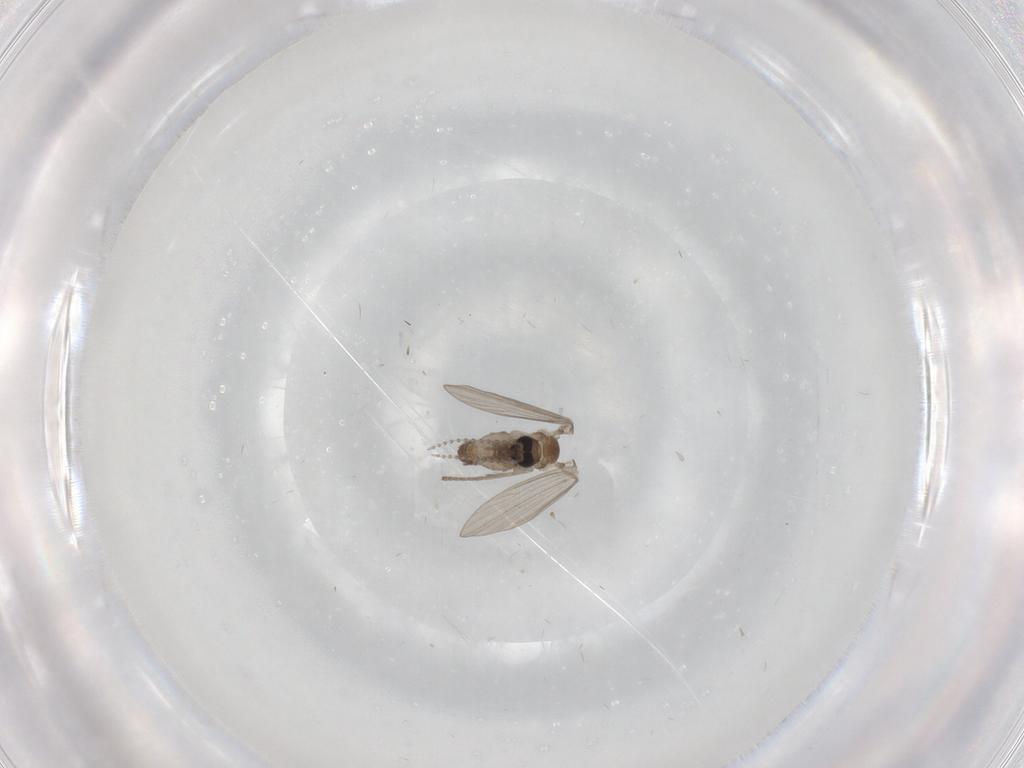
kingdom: Animalia
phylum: Arthropoda
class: Insecta
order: Diptera
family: Psychodidae
